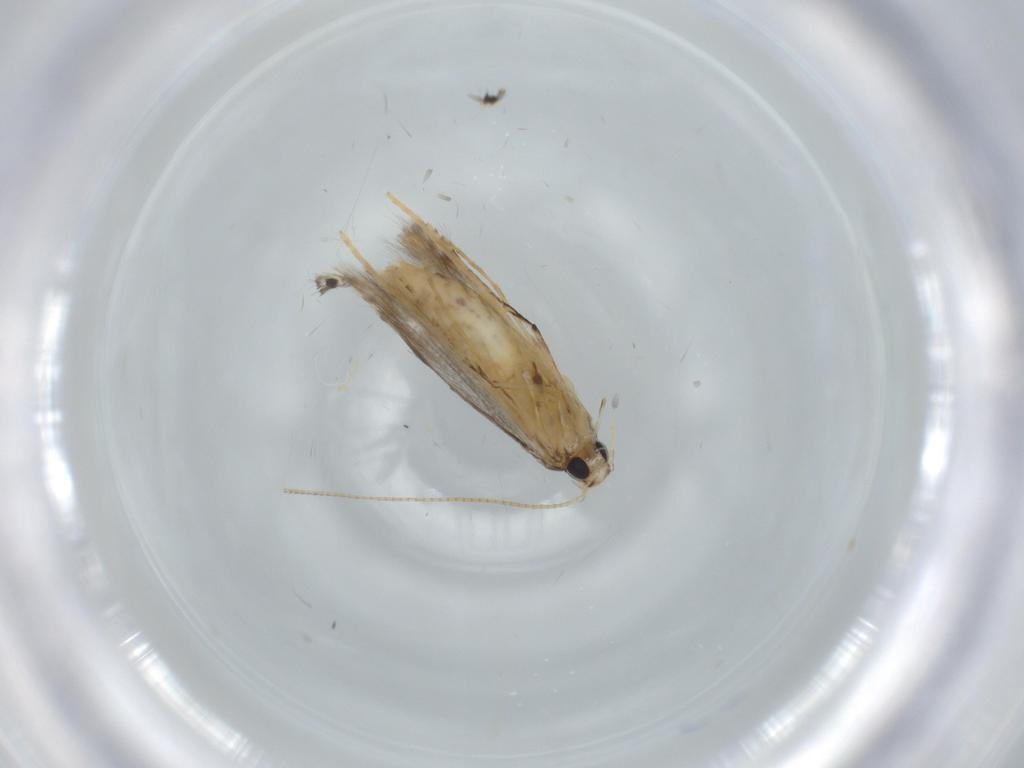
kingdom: Animalia
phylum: Arthropoda
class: Insecta
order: Lepidoptera
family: Gracillariidae
